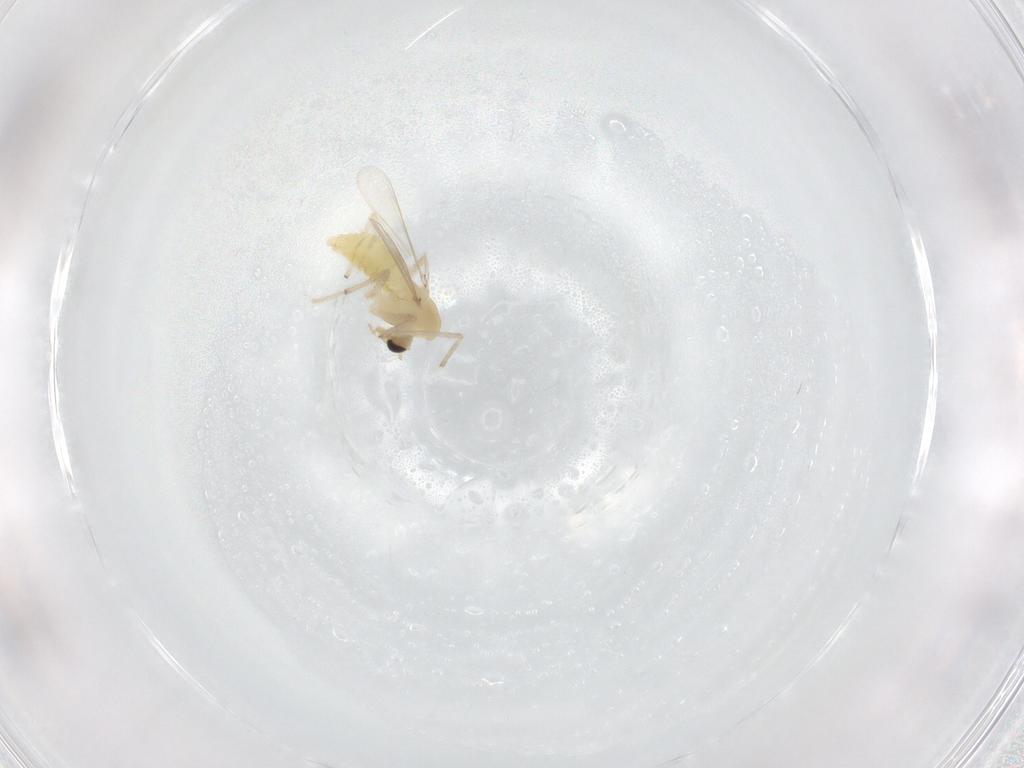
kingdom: Animalia
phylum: Arthropoda
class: Insecta
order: Diptera
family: Chironomidae
